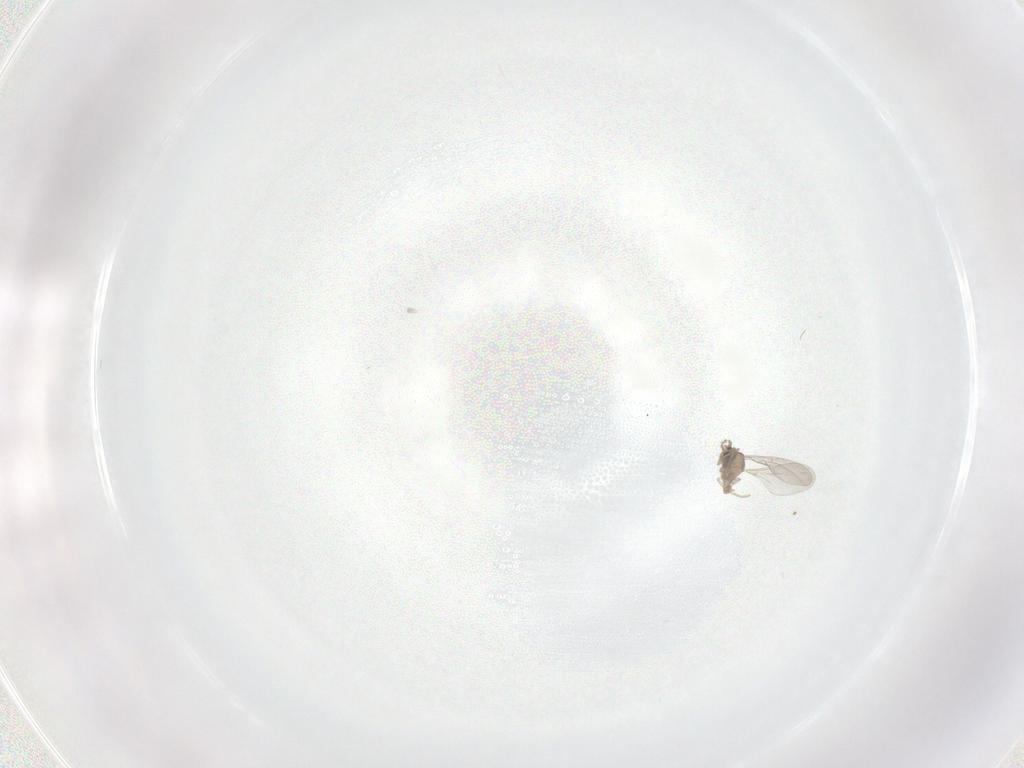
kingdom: Animalia
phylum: Arthropoda
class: Insecta
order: Diptera
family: Cecidomyiidae
